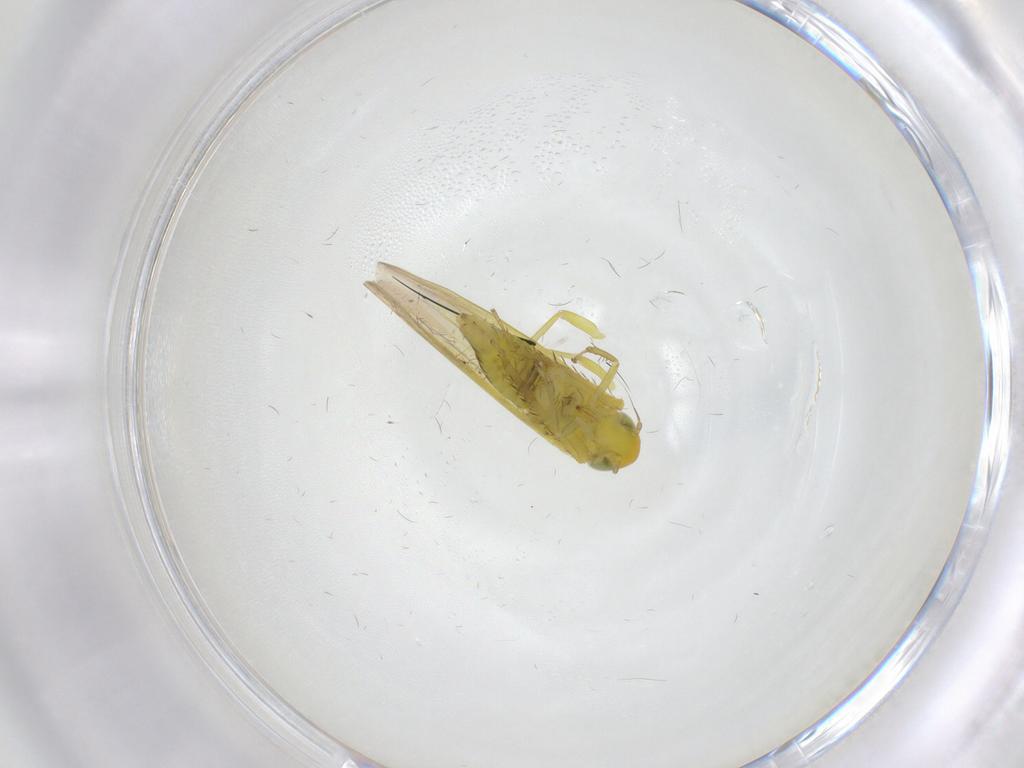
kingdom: Animalia
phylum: Arthropoda
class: Insecta
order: Hemiptera
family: Cicadellidae
